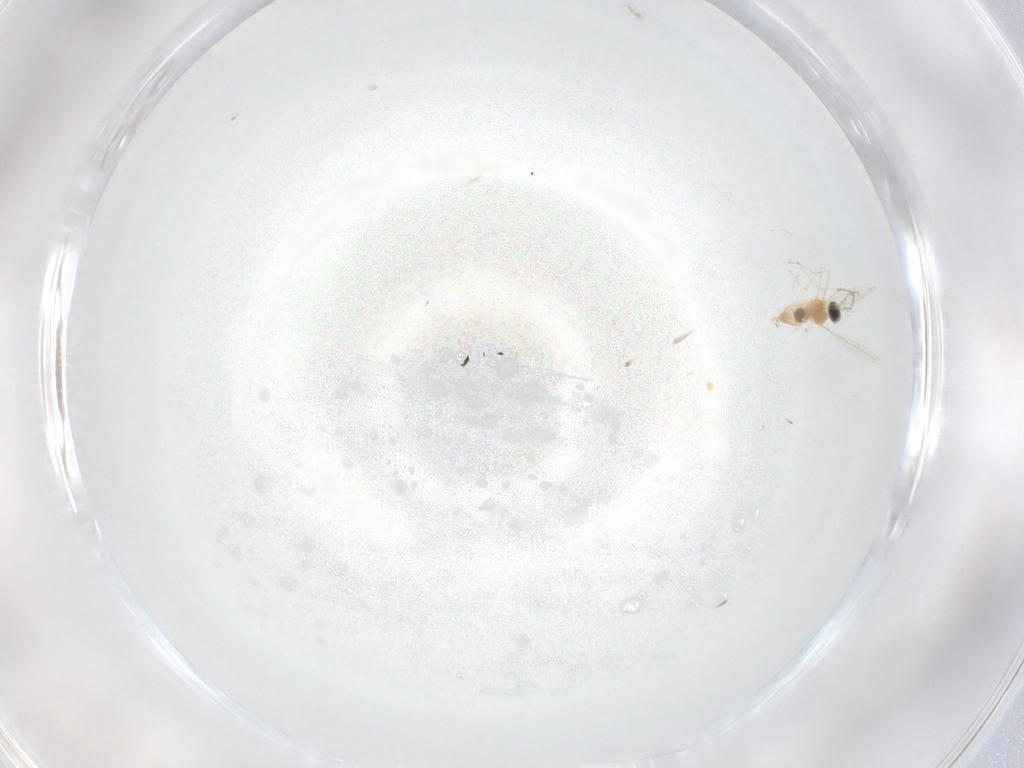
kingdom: Animalia
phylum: Arthropoda
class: Insecta
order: Diptera
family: Cecidomyiidae
